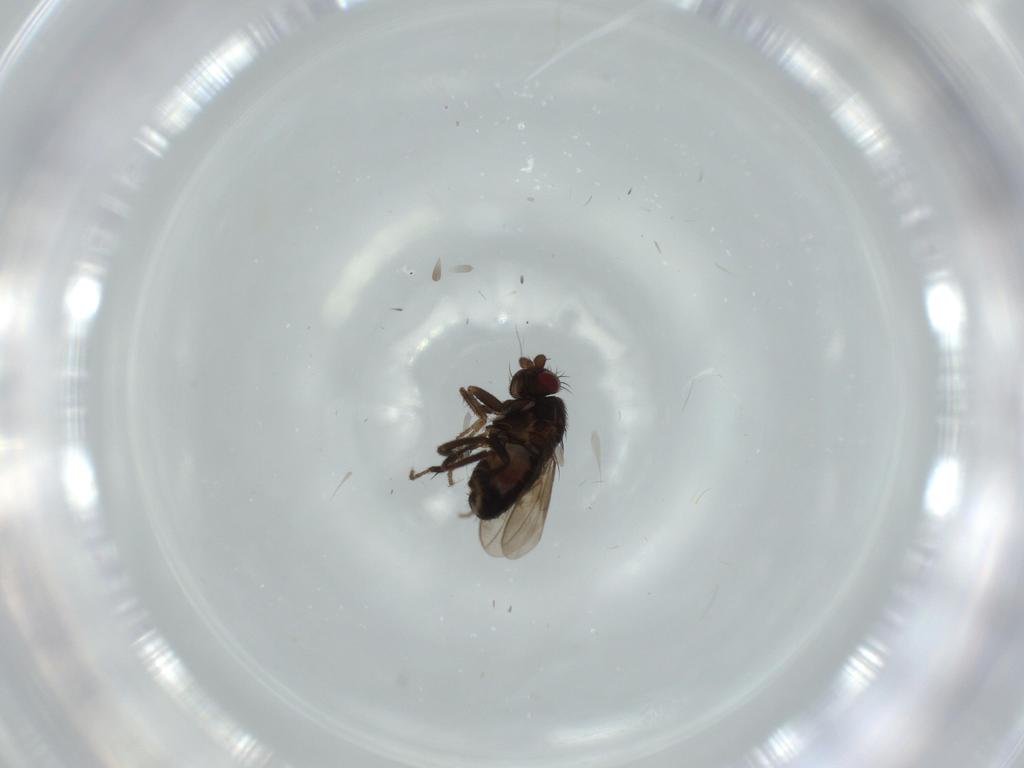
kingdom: Animalia
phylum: Arthropoda
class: Insecta
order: Diptera
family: Sphaeroceridae
